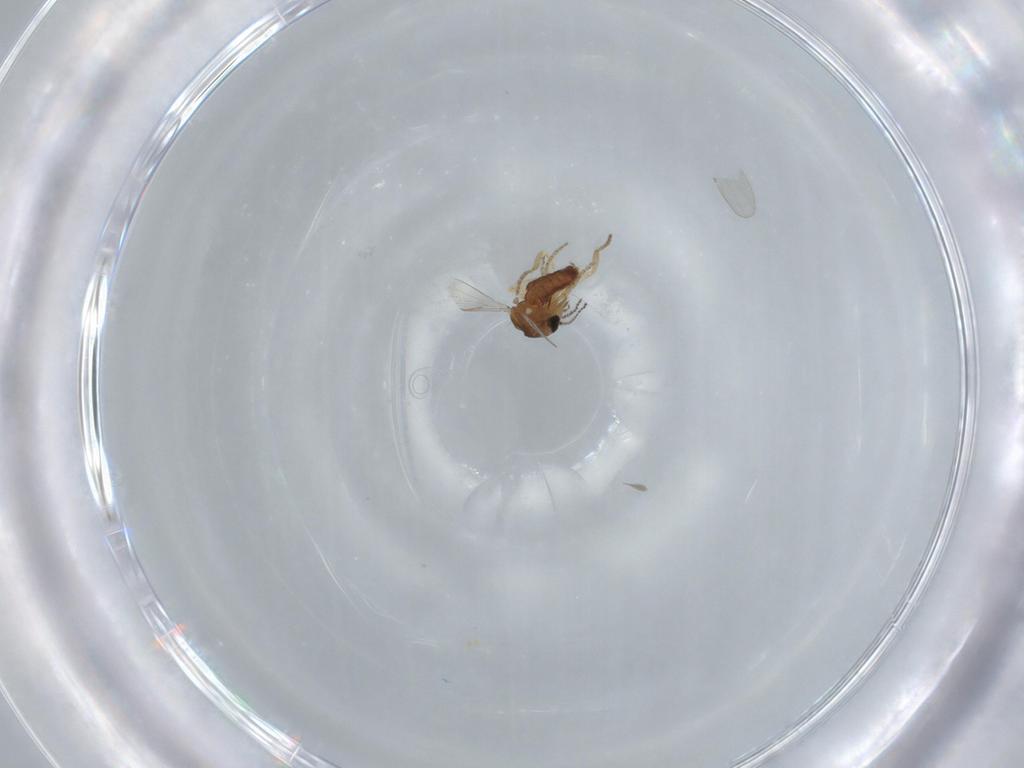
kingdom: Animalia
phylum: Arthropoda
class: Insecta
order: Diptera
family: Ceratopogonidae
